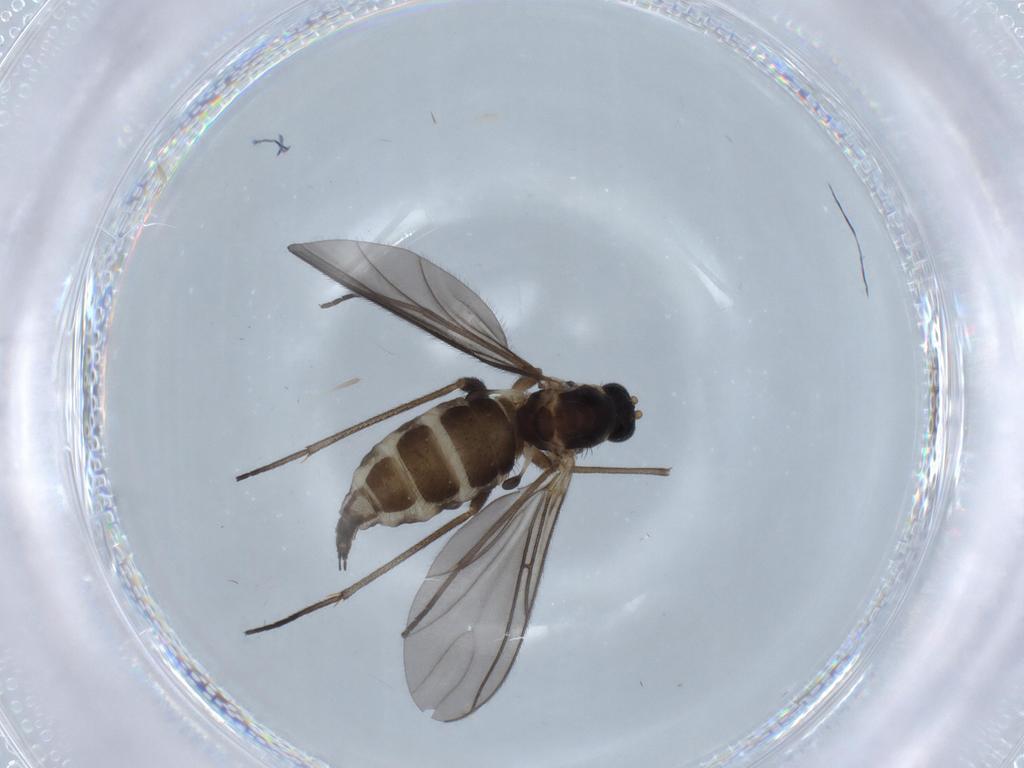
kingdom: Animalia
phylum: Arthropoda
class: Insecta
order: Diptera
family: Sciaridae
